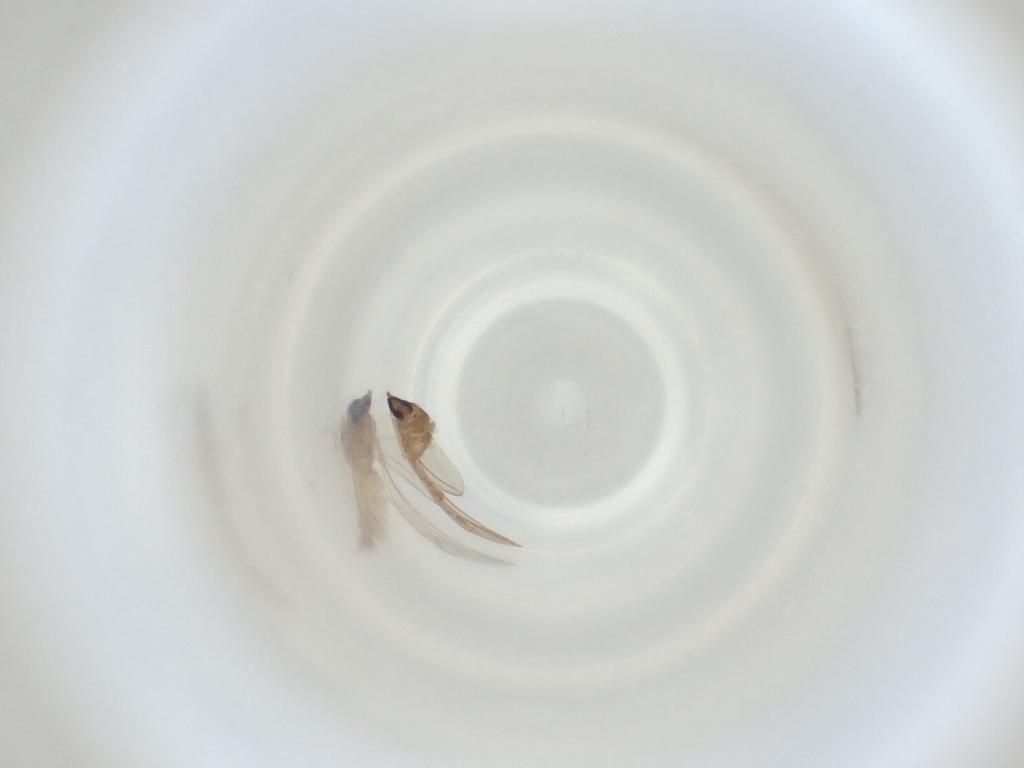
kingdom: Animalia
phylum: Arthropoda
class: Insecta
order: Diptera
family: Cecidomyiidae
